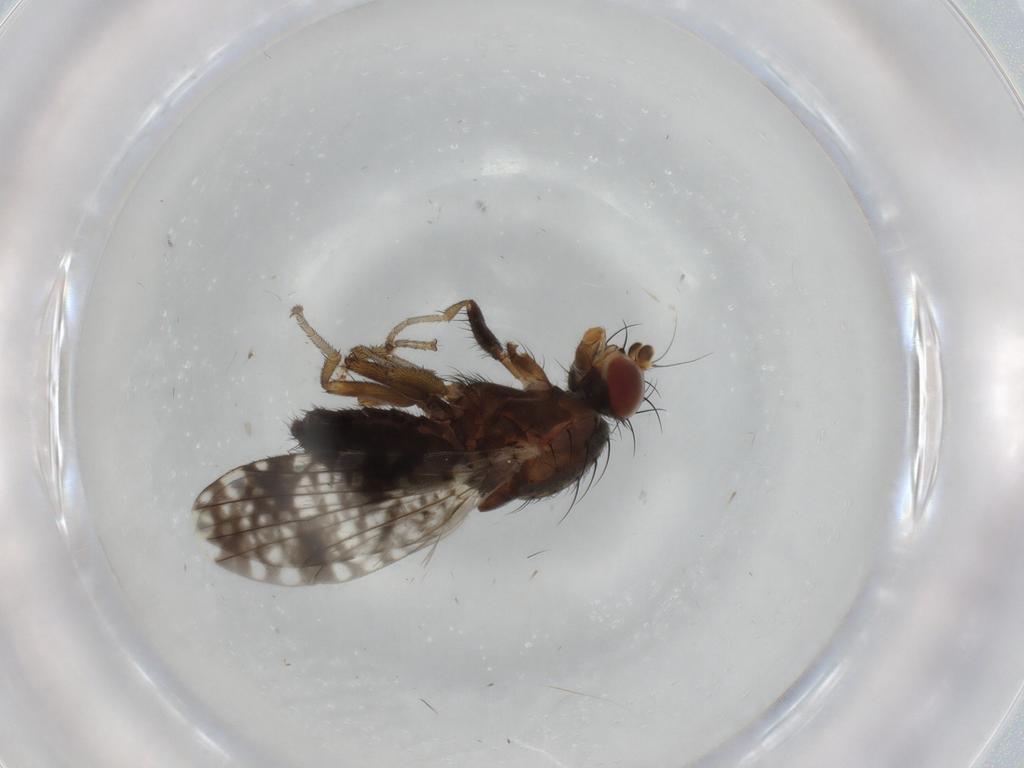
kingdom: Animalia
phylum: Arthropoda
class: Insecta
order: Diptera
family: Tephritidae
